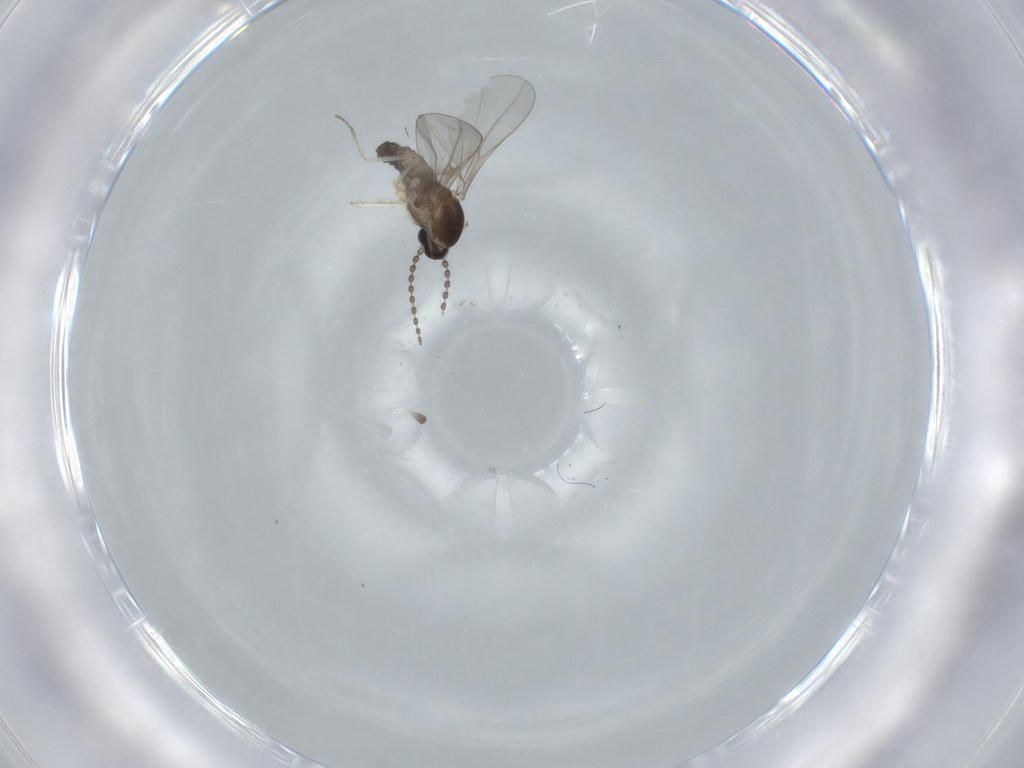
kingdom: Animalia
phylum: Arthropoda
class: Insecta
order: Diptera
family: Cecidomyiidae
